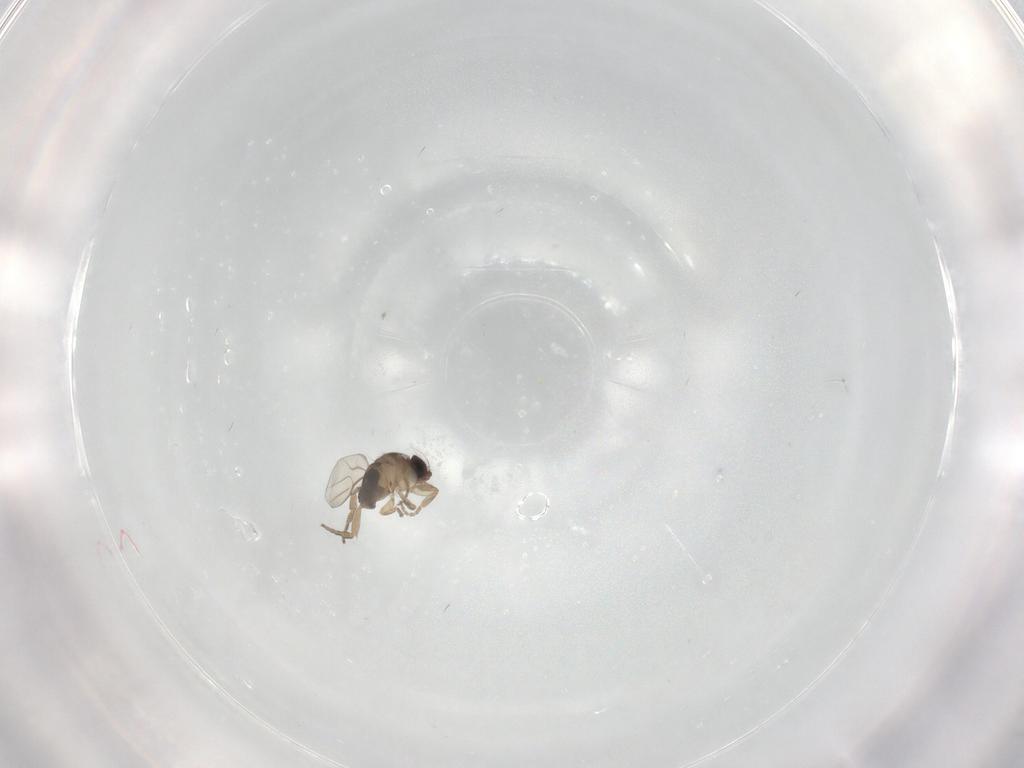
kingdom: Animalia
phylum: Arthropoda
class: Insecta
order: Diptera
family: Phoridae
